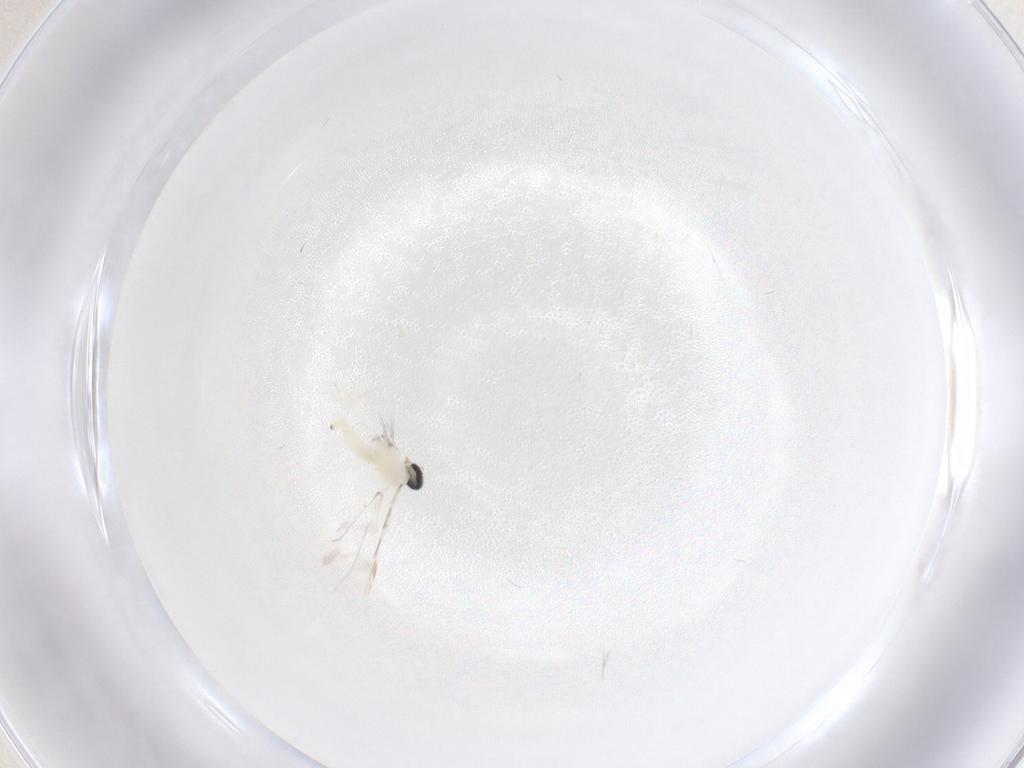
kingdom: Animalia
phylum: Arthropoda
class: Insecta
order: Diptera
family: Cecidomyiidae
